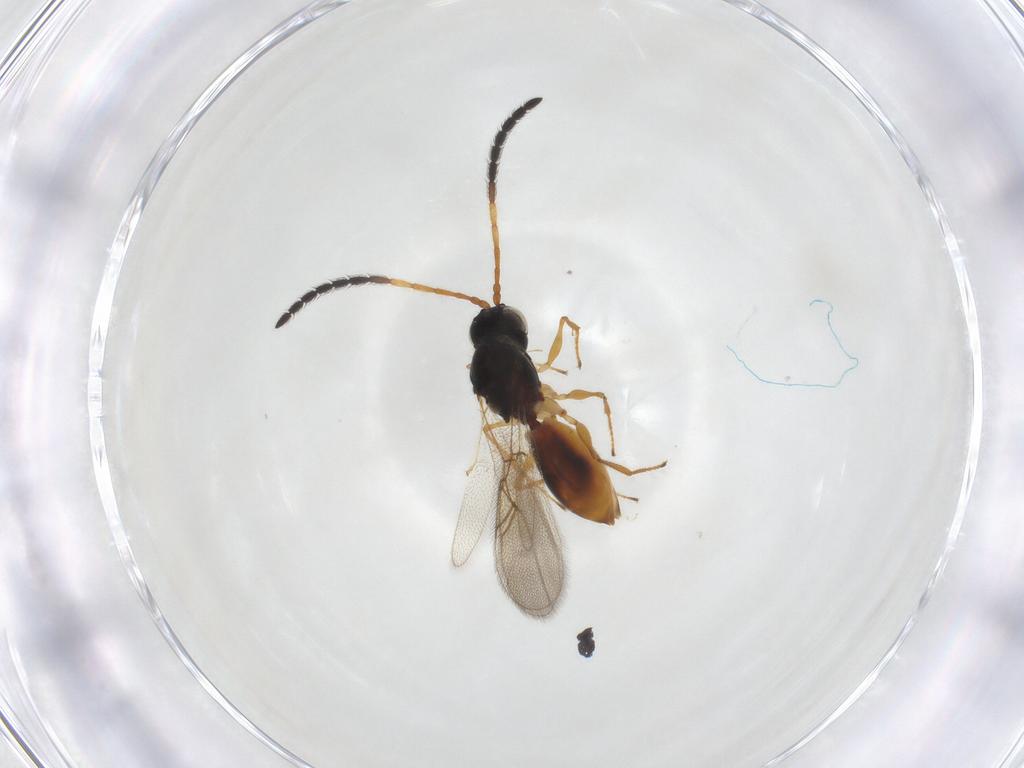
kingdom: Animalia
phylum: Arthropoda
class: Insecta
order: Hymenoptera
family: Figitidae
